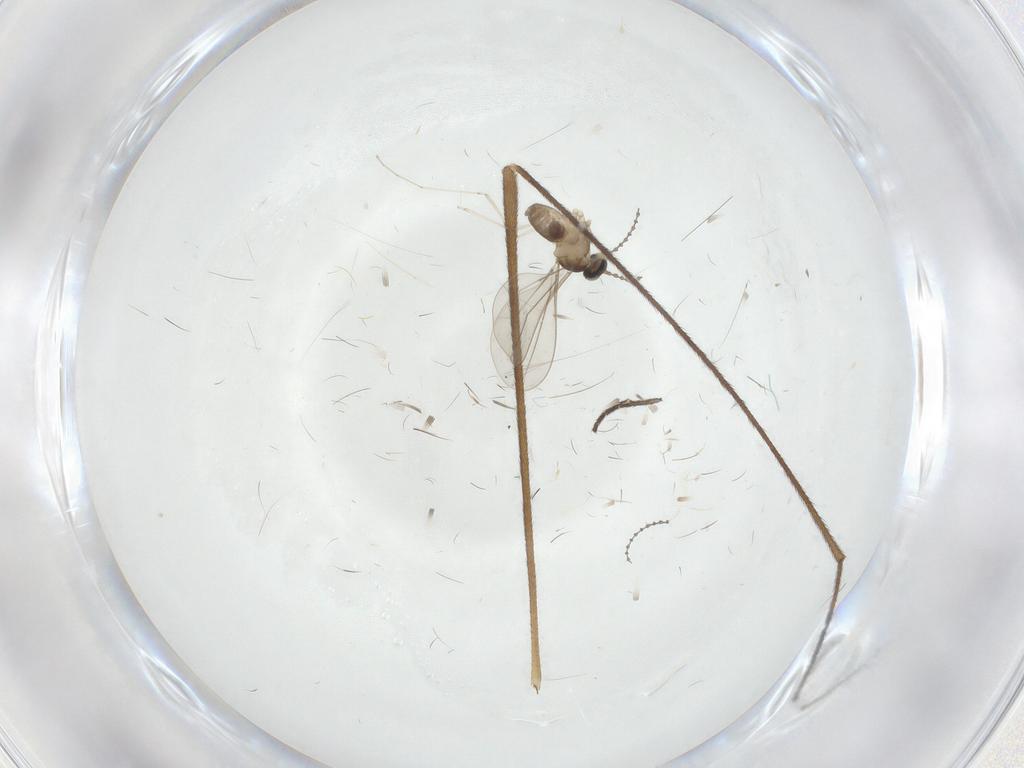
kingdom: Animalia
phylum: Arthropoda
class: Insecta
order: Diptera
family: Limoniidae
